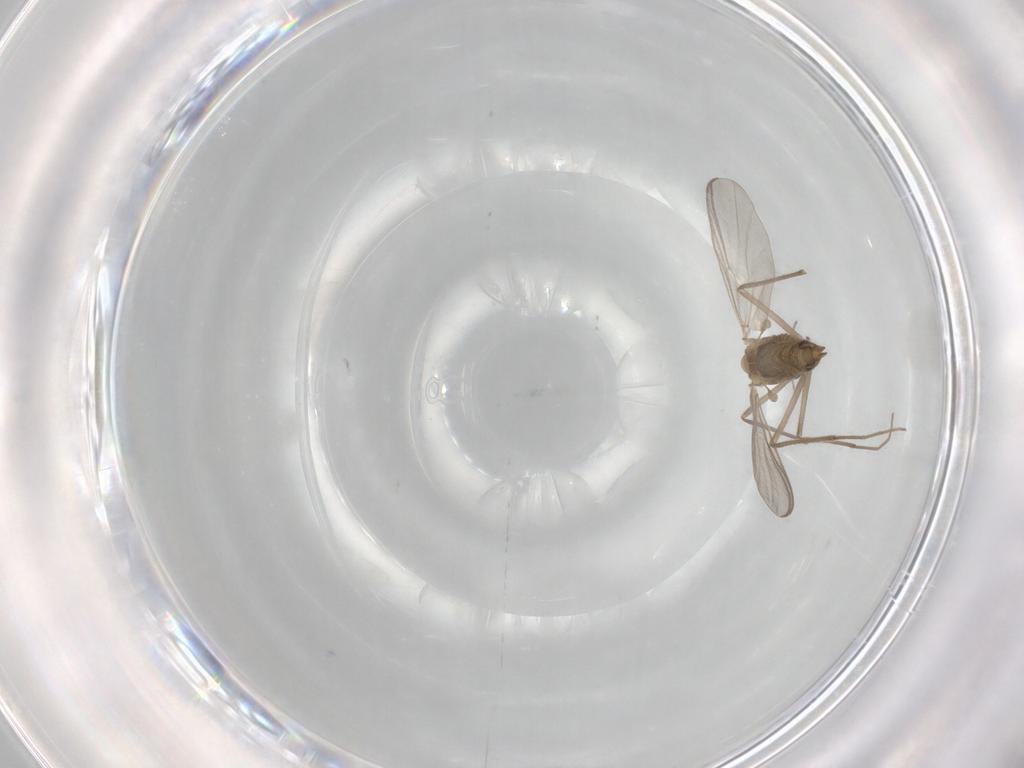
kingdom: Animalia
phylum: Arthropoda
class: Insecta
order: Diptera
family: Chironomidae
